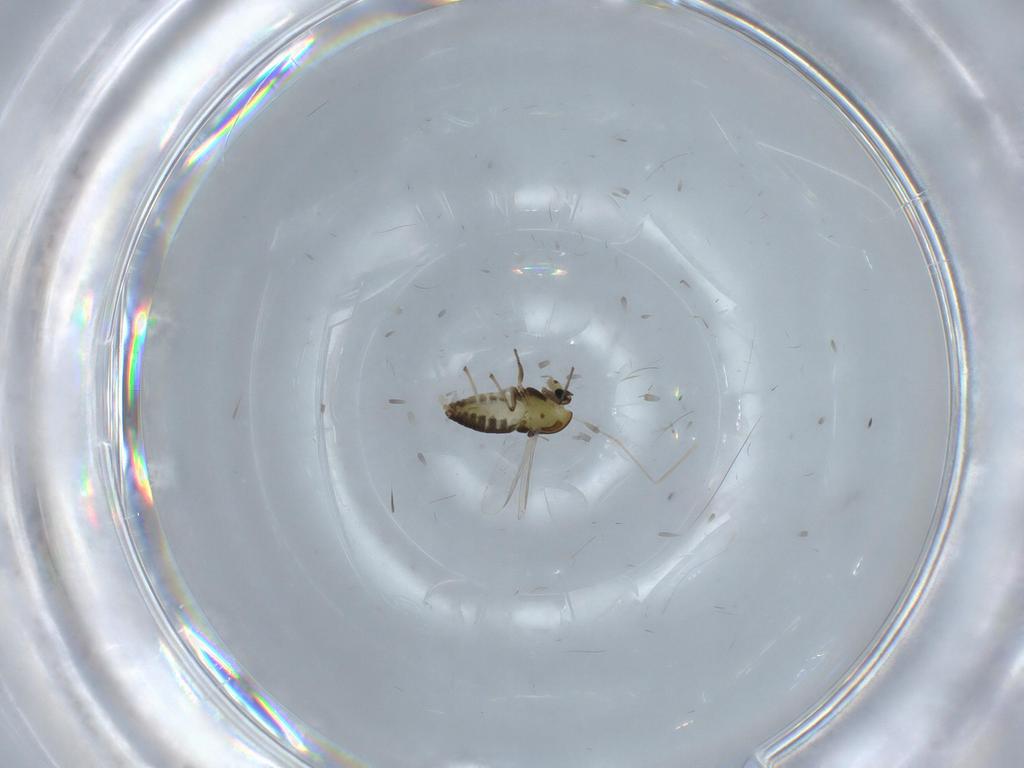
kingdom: Animalia
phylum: Arthropoda
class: Insecta
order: Diptera
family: Chironomidae
